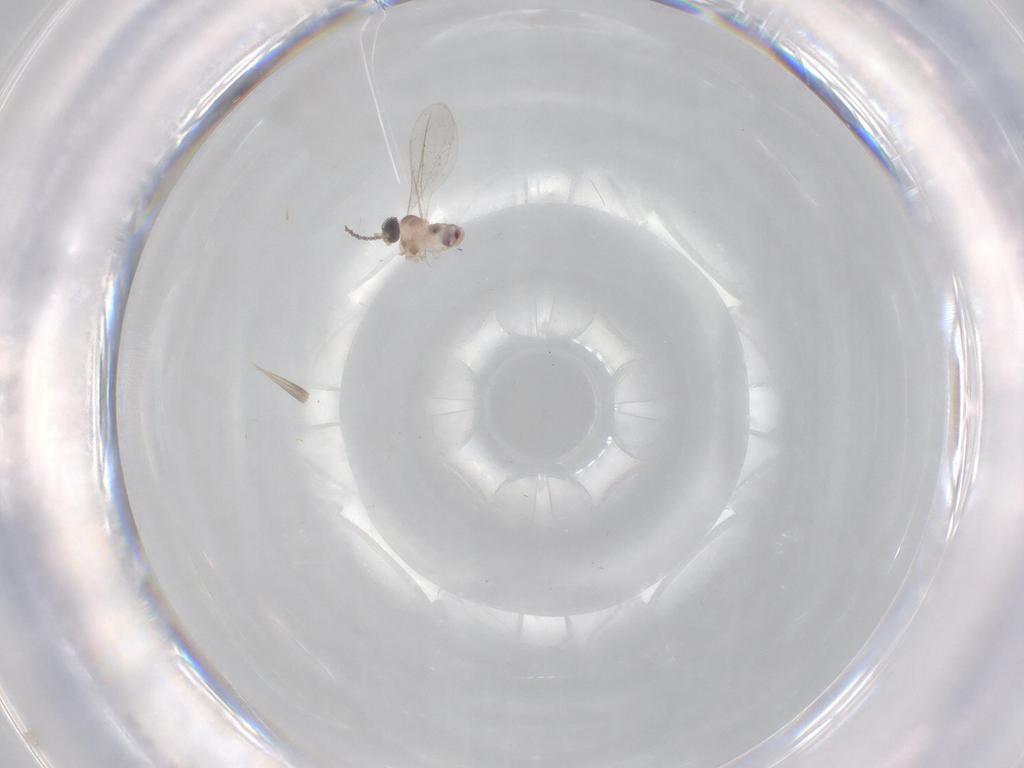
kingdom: Animalia
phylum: Arthropoda
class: Insecta
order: Diptera
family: Cecidomyiidae
